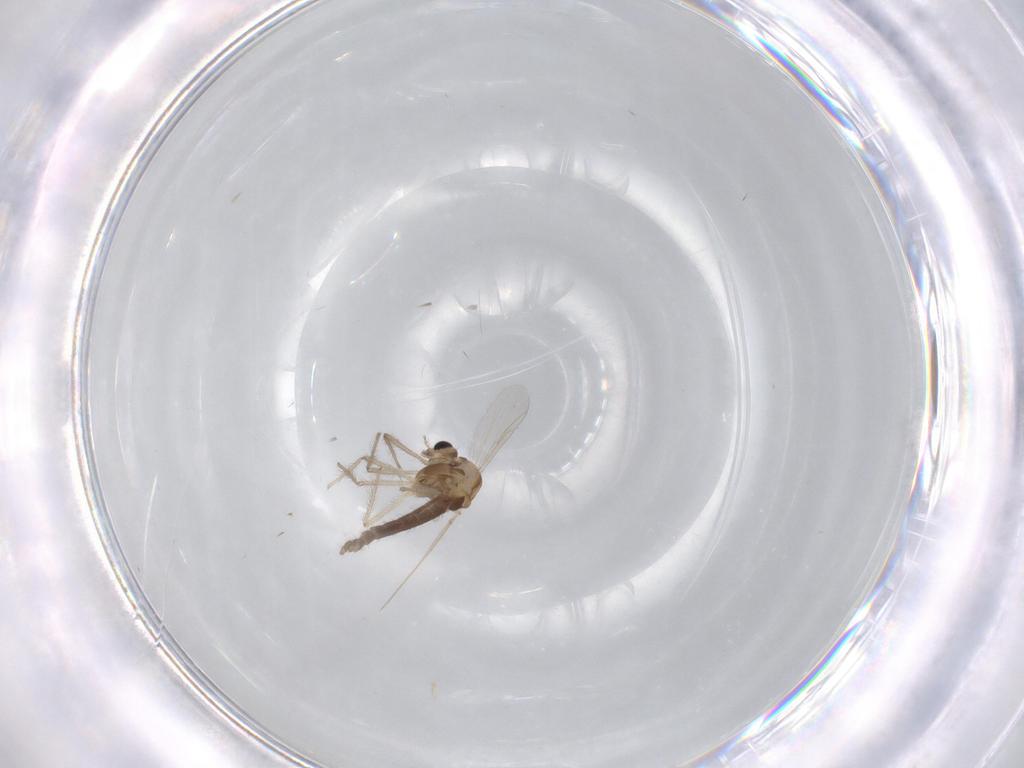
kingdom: Animalia
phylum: Arthropoda
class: Insecta
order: Diptera
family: Chironomidae
